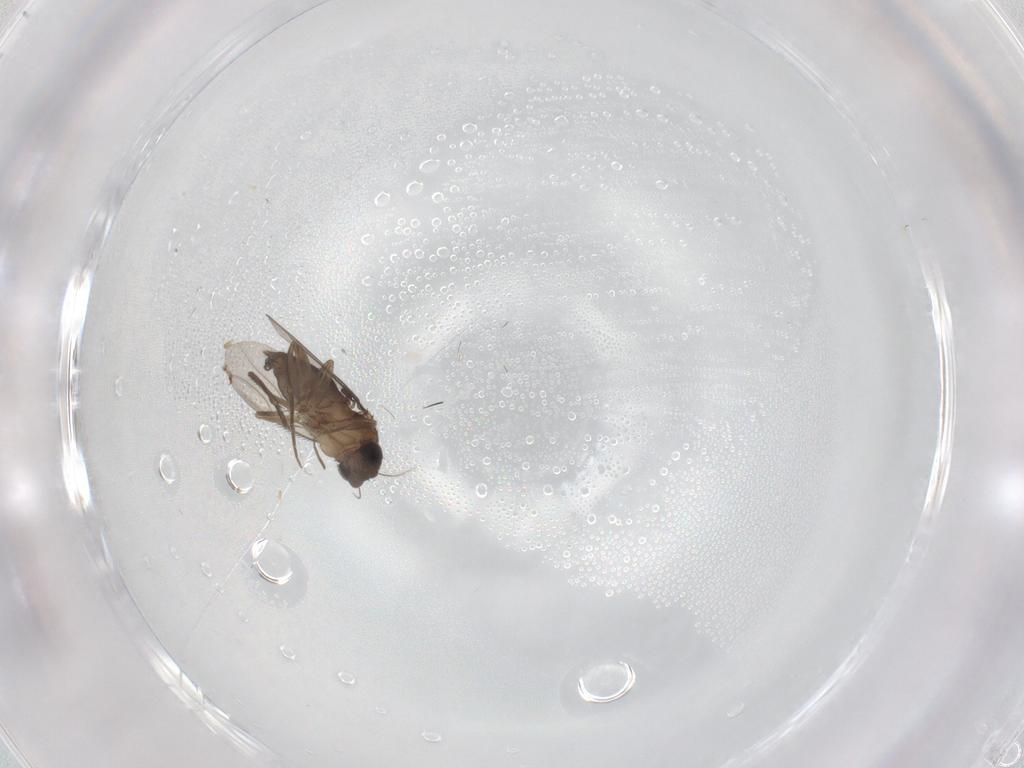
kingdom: Animalia
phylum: Arthropoda
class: Insecta
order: Diptera
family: Phoridae
